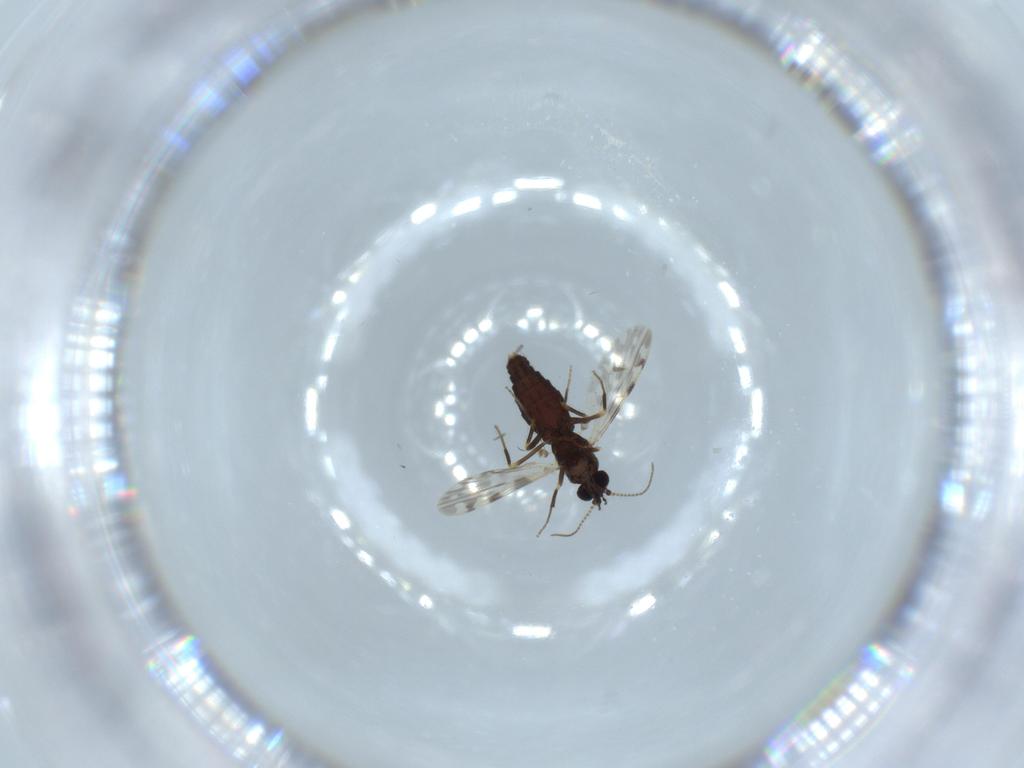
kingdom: Animalia
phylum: Arthropoda
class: Insecta
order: Diptera
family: Ceratopogonidae
